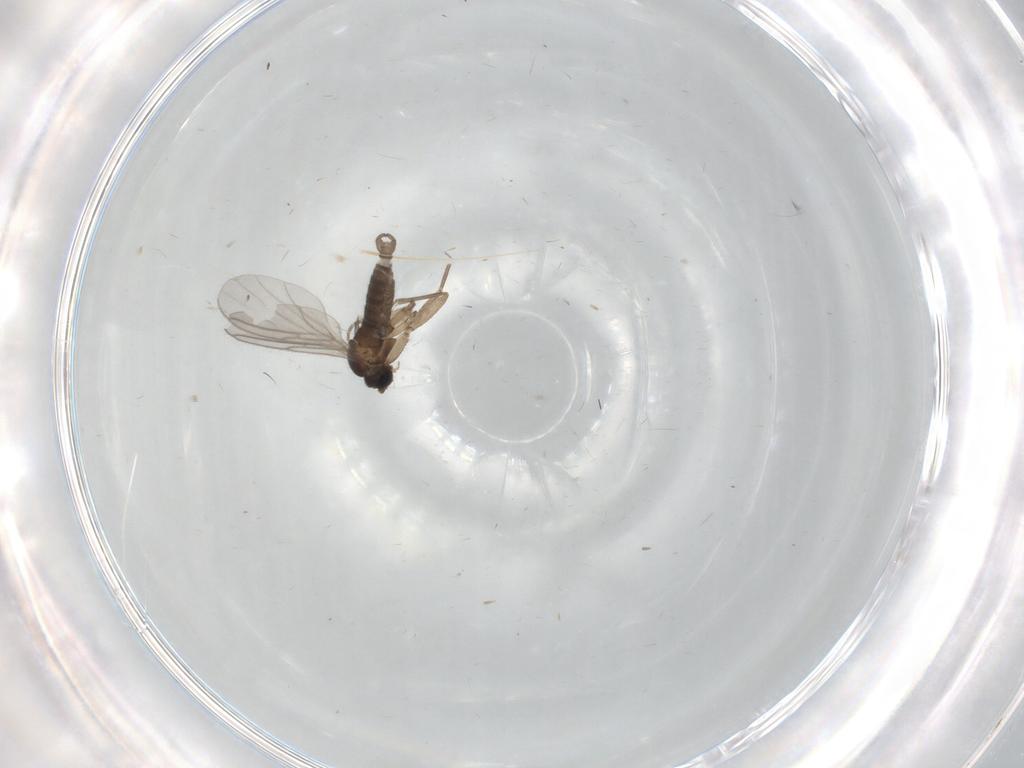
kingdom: Animalia
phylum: Arthropoda
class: Insecta
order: Diptera
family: Sciaridae
